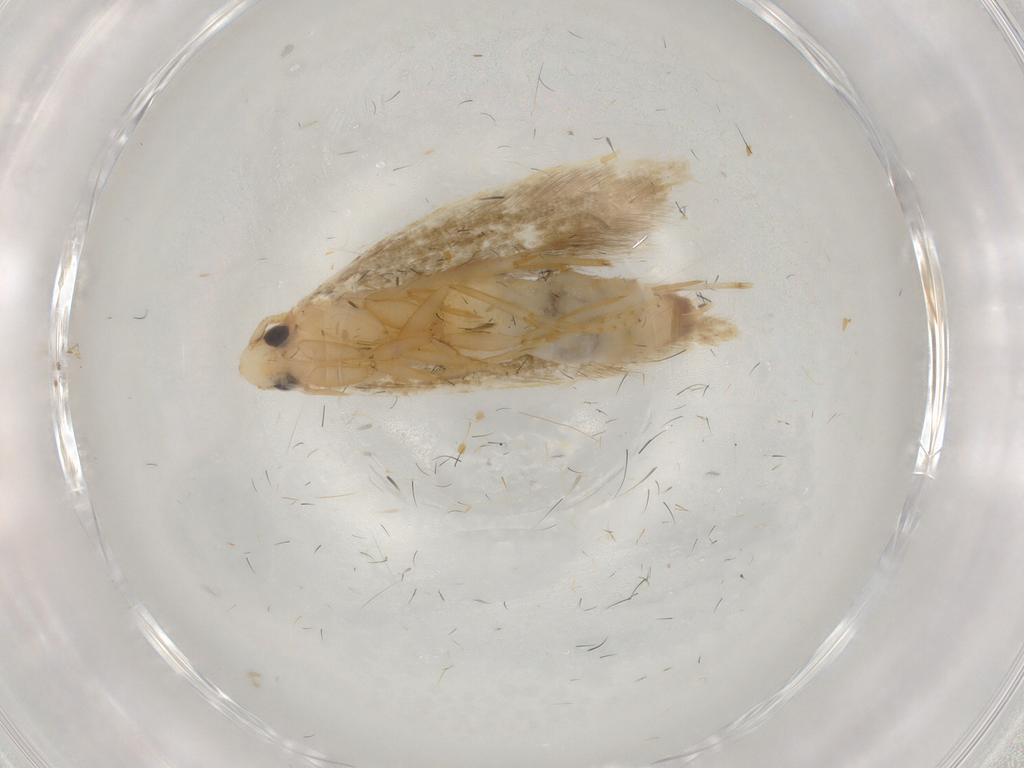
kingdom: Animalia
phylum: Arthropoda
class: Insecta
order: Lepidoptera
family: Tineidae
